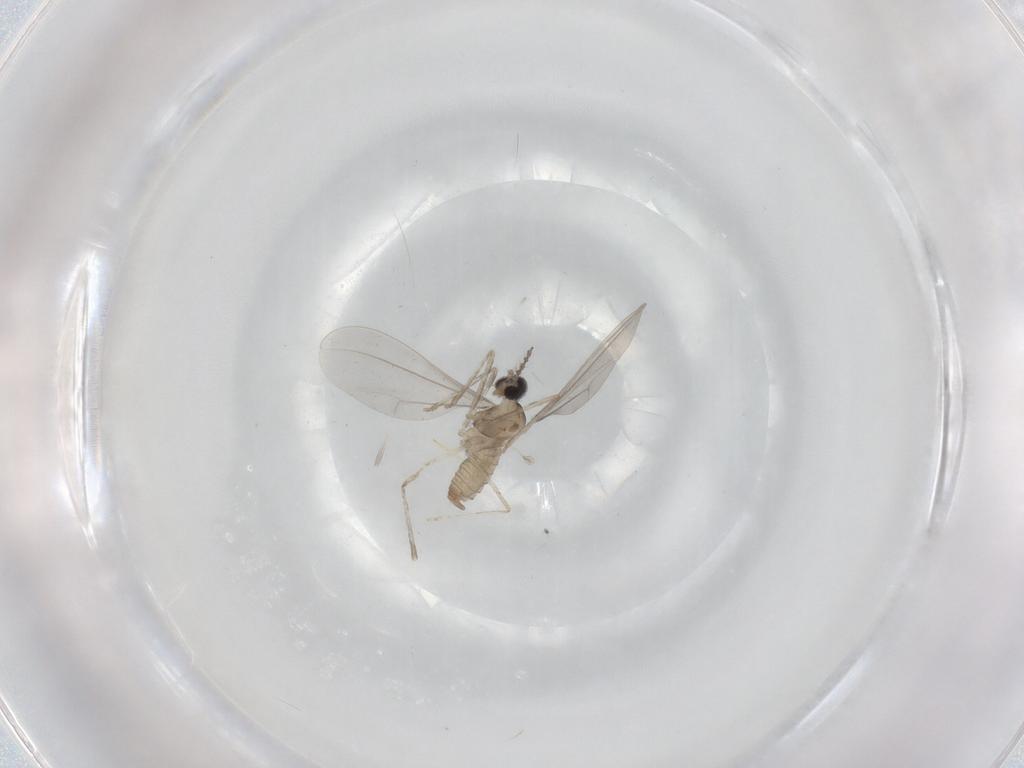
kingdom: Animalia
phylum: Arthropoda
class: Insecta
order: Diptera
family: Cecidomyiidae
